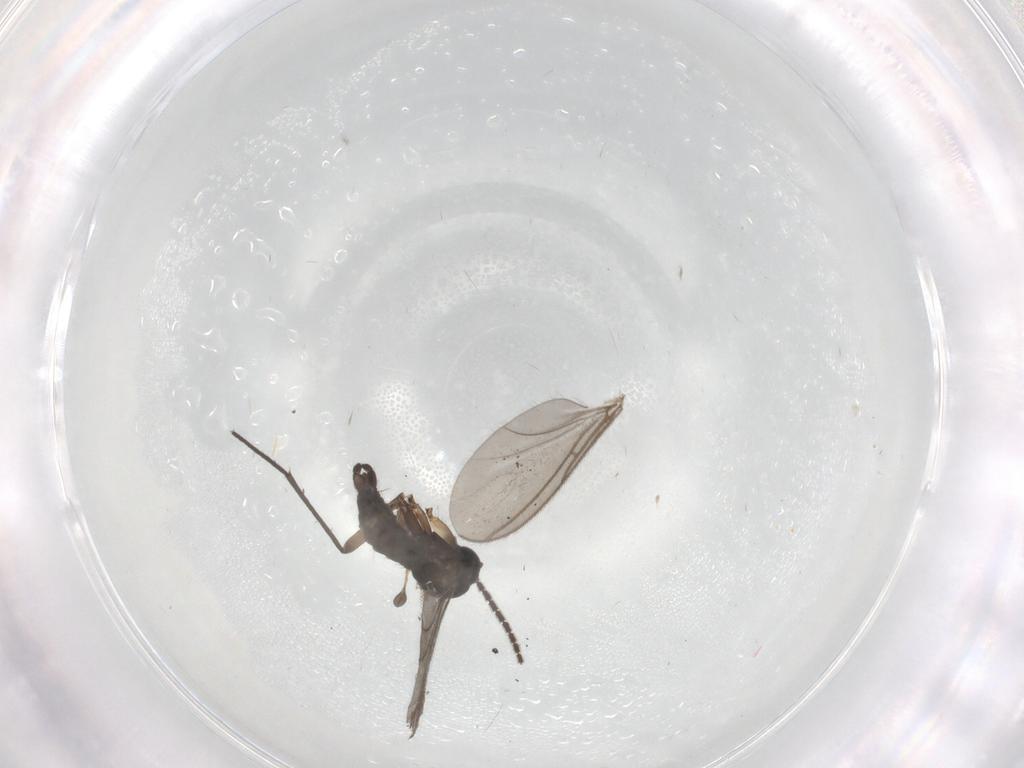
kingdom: Animalia
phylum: Arthropoda
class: Insecta
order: Diptera
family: Sciaridae
